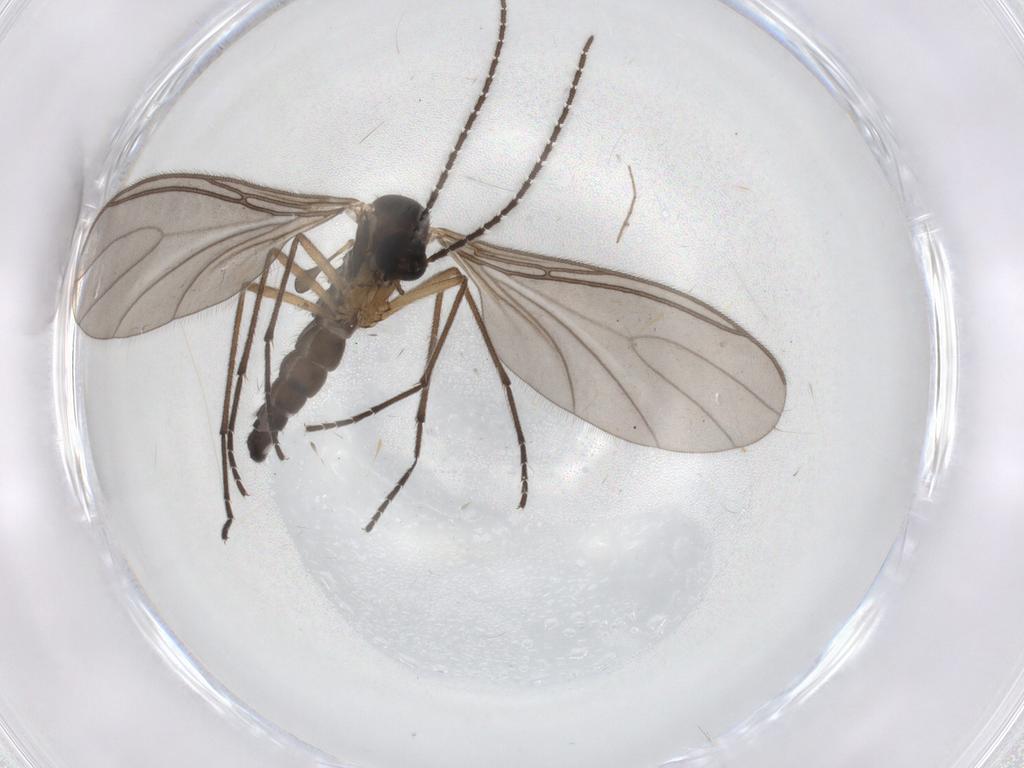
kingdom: Animalia
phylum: Arthropoda
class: Insecta
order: Diptera
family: Sciaridae
